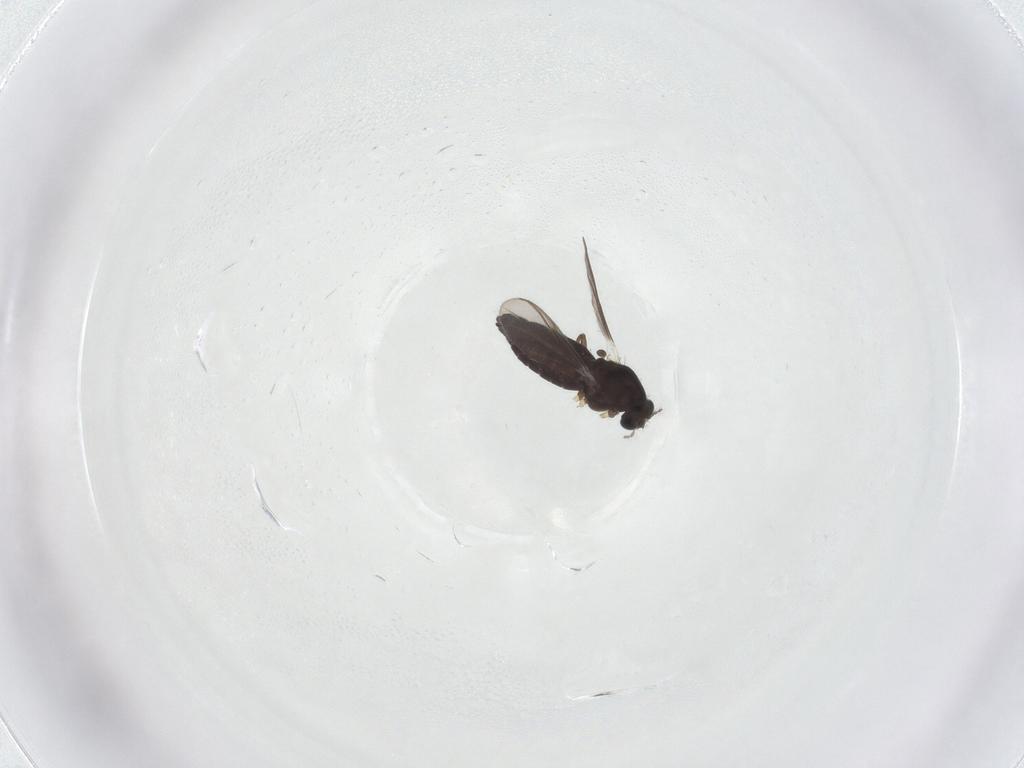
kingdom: Animalia
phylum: Arthropoda
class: Insecta
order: Diptera
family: Chironomidae
